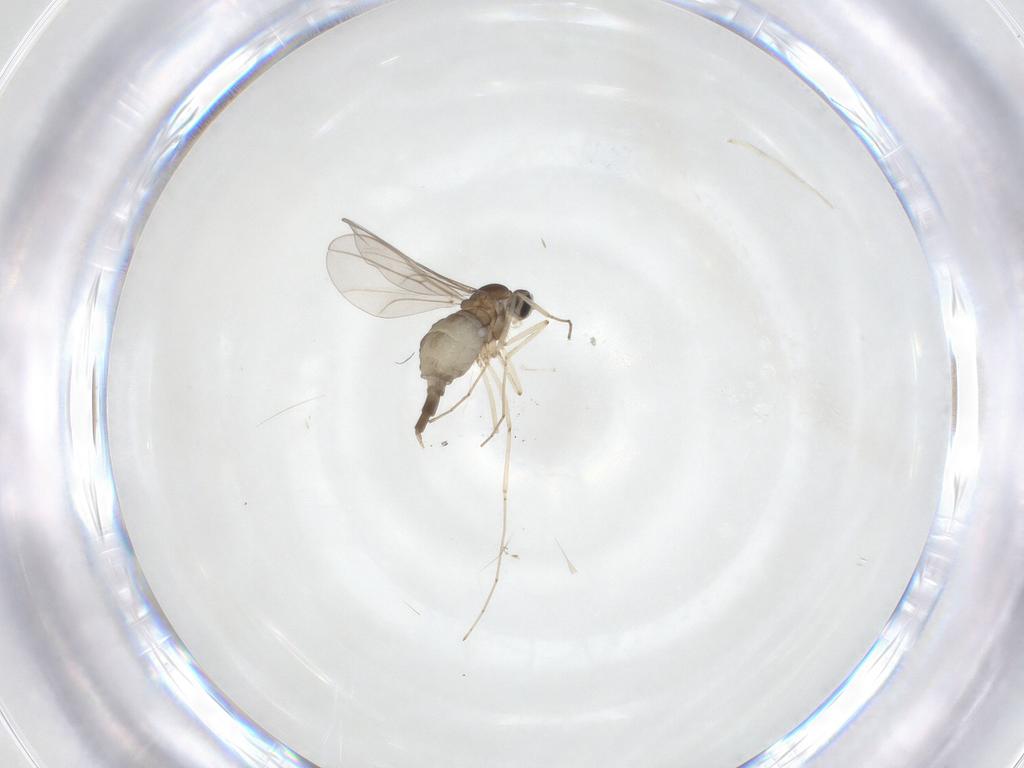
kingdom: Animalia
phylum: Arthropoda
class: Insecta
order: Diptera
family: Cecidomyiidae
